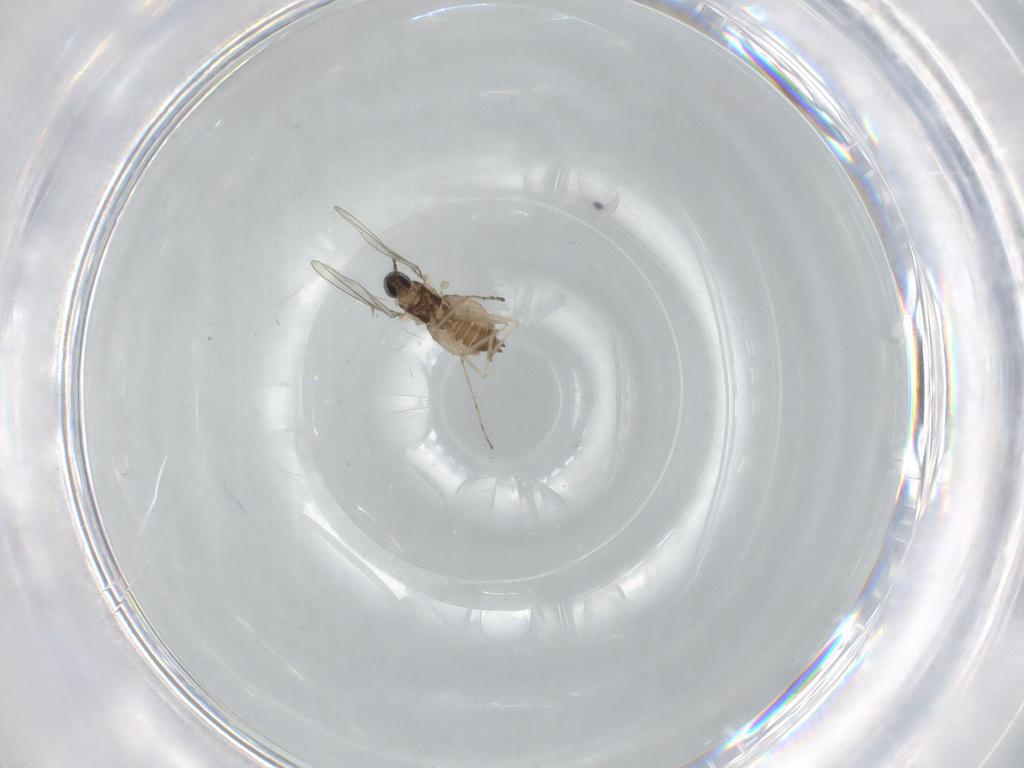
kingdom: Animalia
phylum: Arthropoda
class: Insecta
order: Diptera
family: Cecidomyiidae
